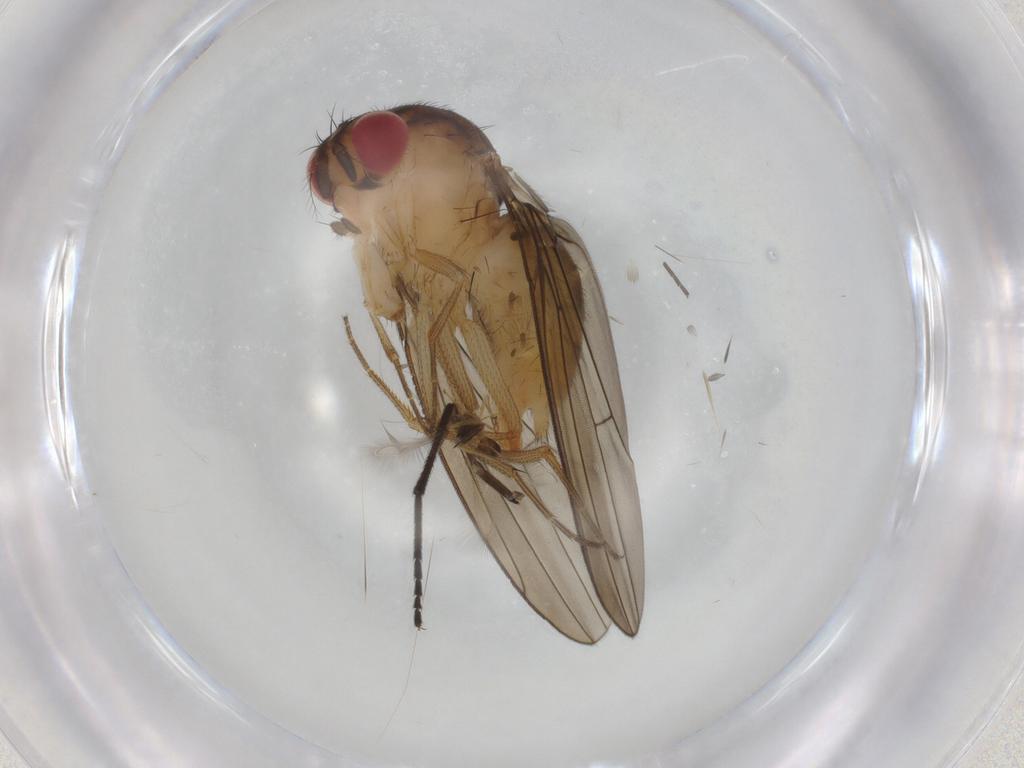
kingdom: Animalia
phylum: Arthropoda
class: Insecta
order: Diptera
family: Drosophilidae
